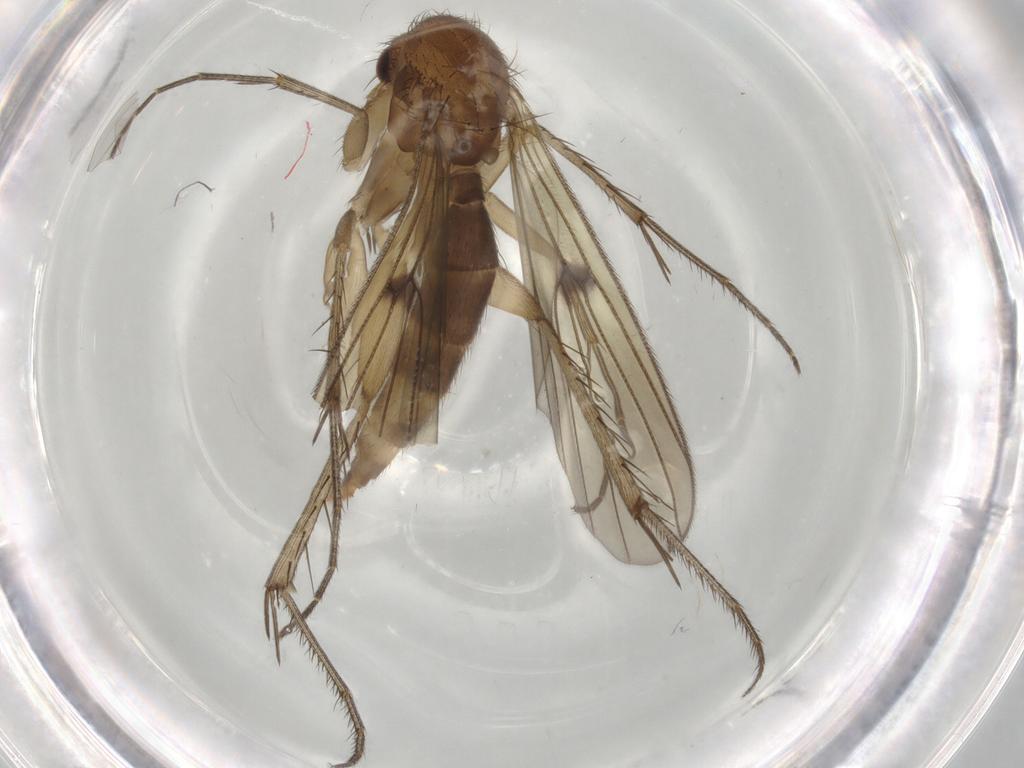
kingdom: Animalia
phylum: Arthropoda
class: Insecta
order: Diptera
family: Mycetophilidae
